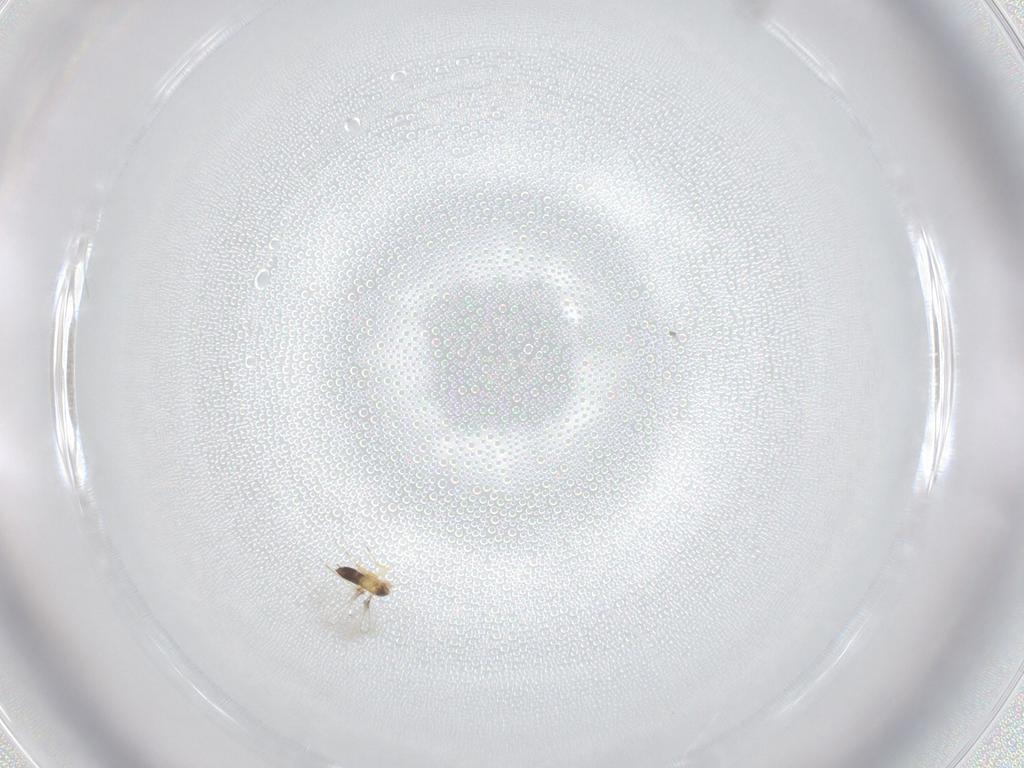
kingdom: Animalia
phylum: Arthropoda
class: Insecta
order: Hymenoptera
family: Mymaridae
